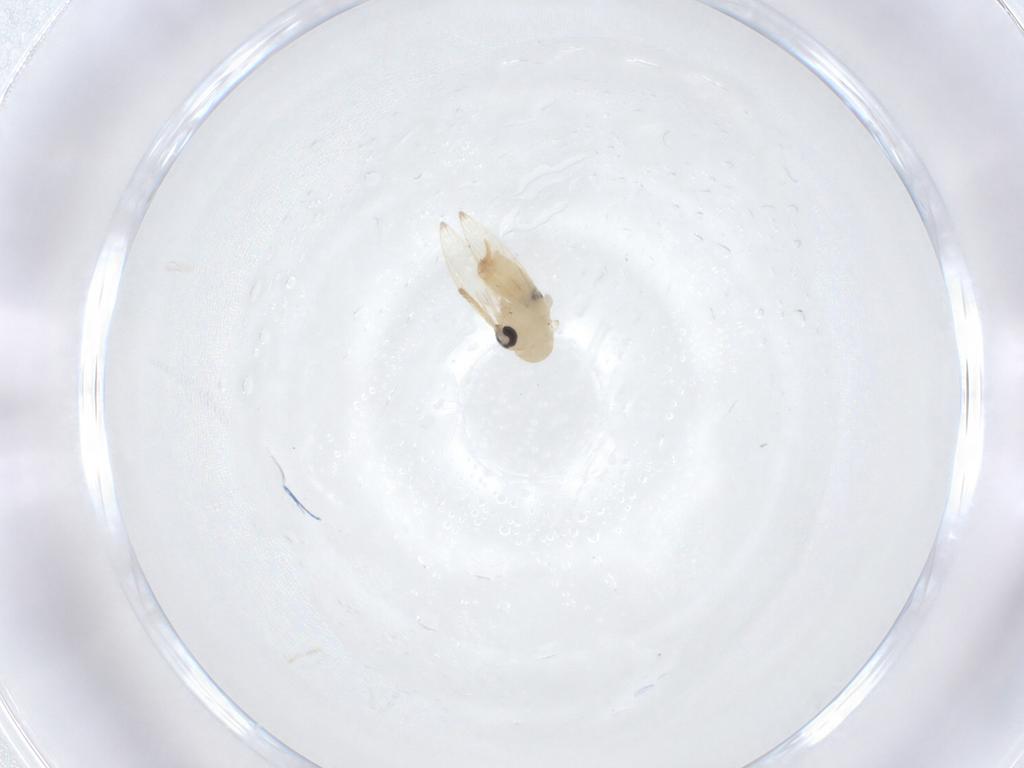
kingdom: Animalia
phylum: Arthropoda
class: Insecta
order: Diptera
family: Psychodidae
